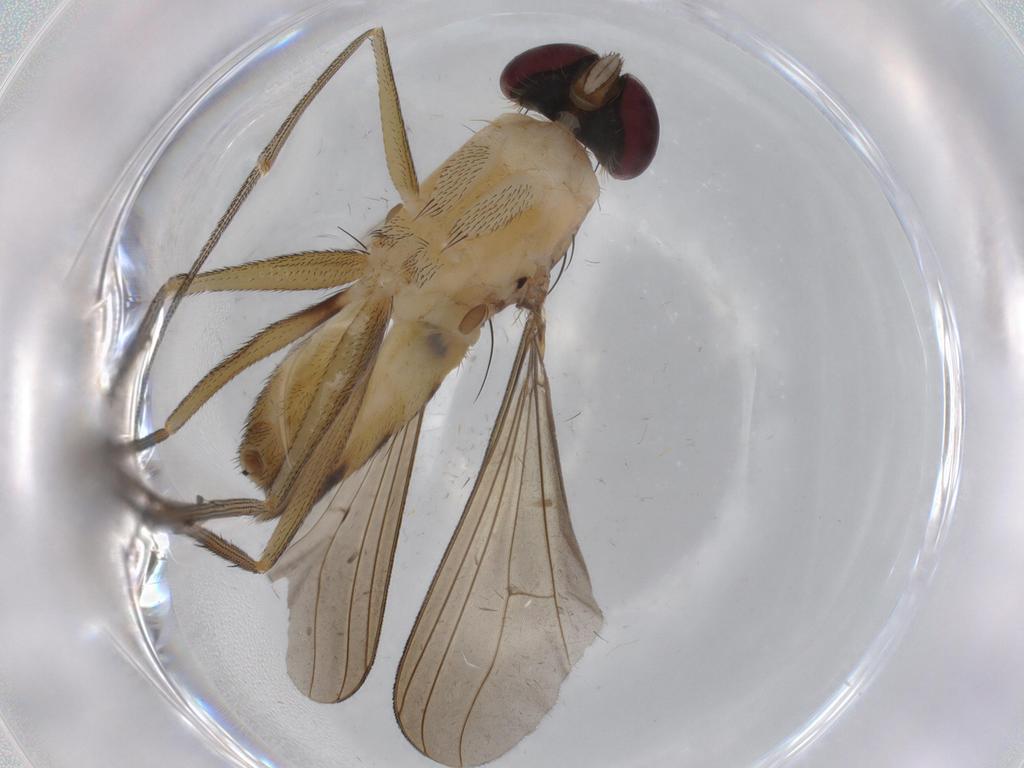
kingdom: Animalia
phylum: Arthropoda
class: Insecta
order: Diptera
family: Dolichopodidae
